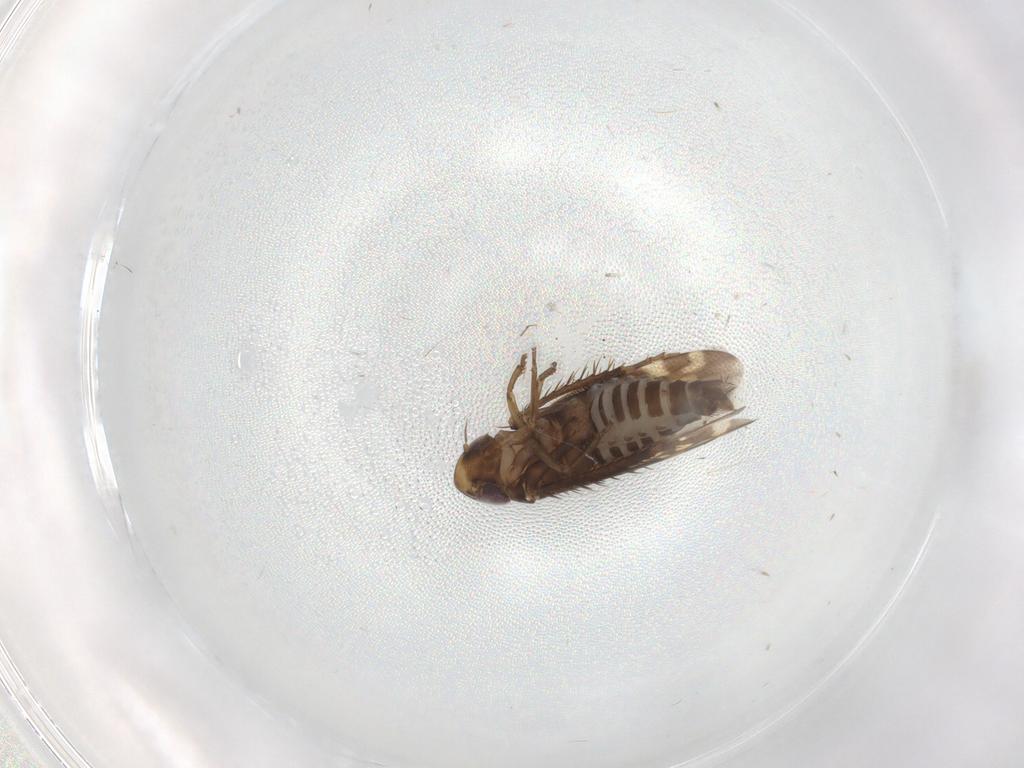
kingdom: Animalia
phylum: Arthropoda
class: Insecta
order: Hemiptera
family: Cicadellidae
